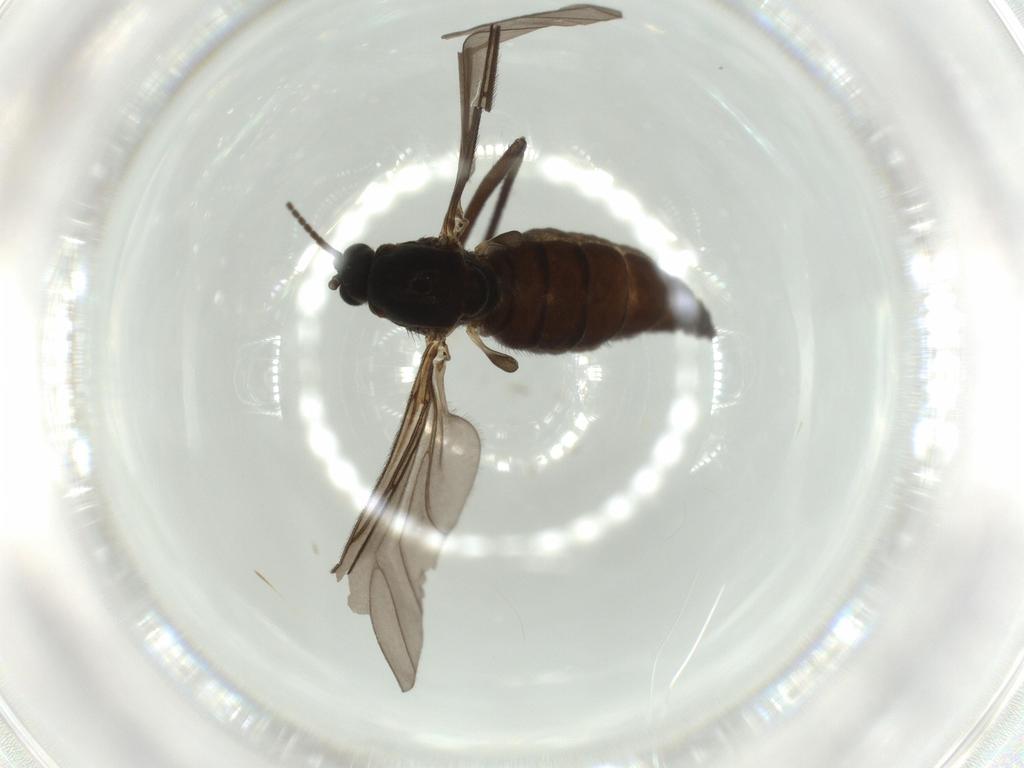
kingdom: Animalia
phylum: Arthropoda
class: Insecta
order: Diptera
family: Sciaridae
